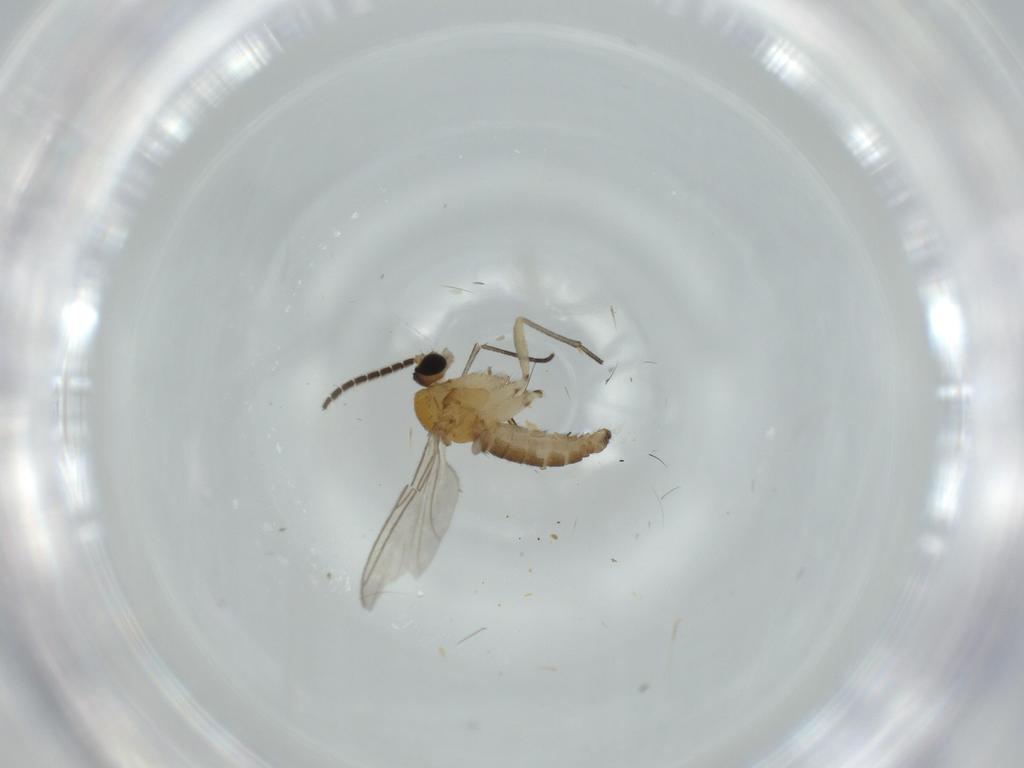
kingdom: Animalia
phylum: Arthropoda
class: Insecta
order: Diptera
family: Sciaridae
